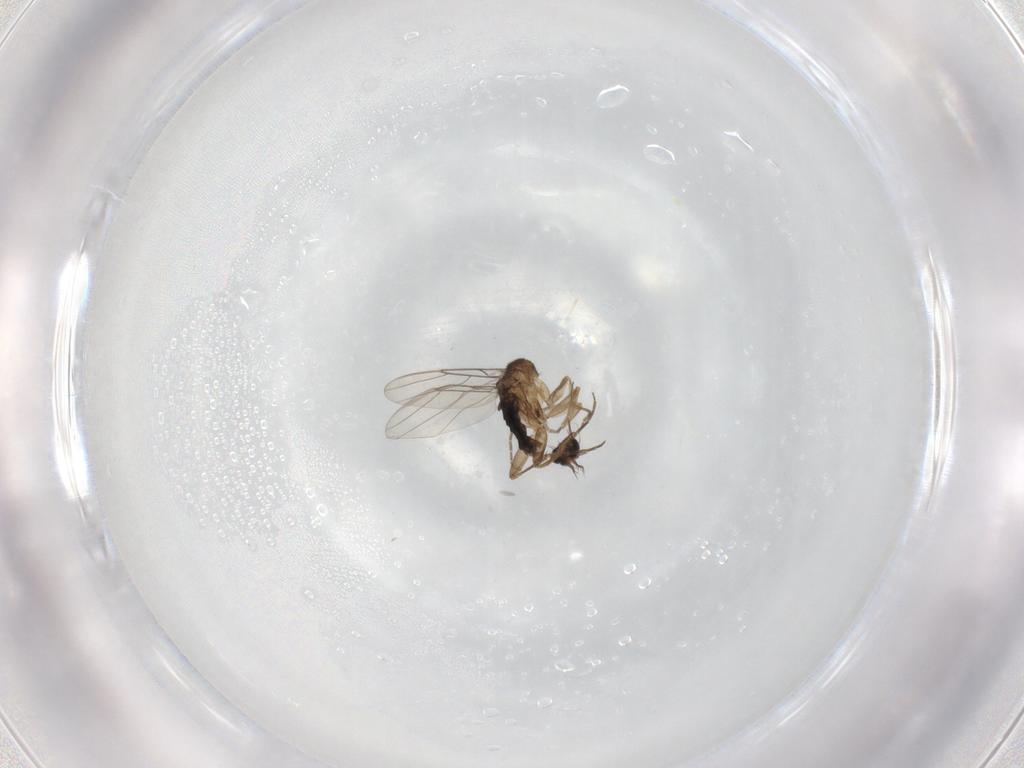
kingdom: Animalia
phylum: Arthropoda
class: Insecta
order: Diptera
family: Phoridae
